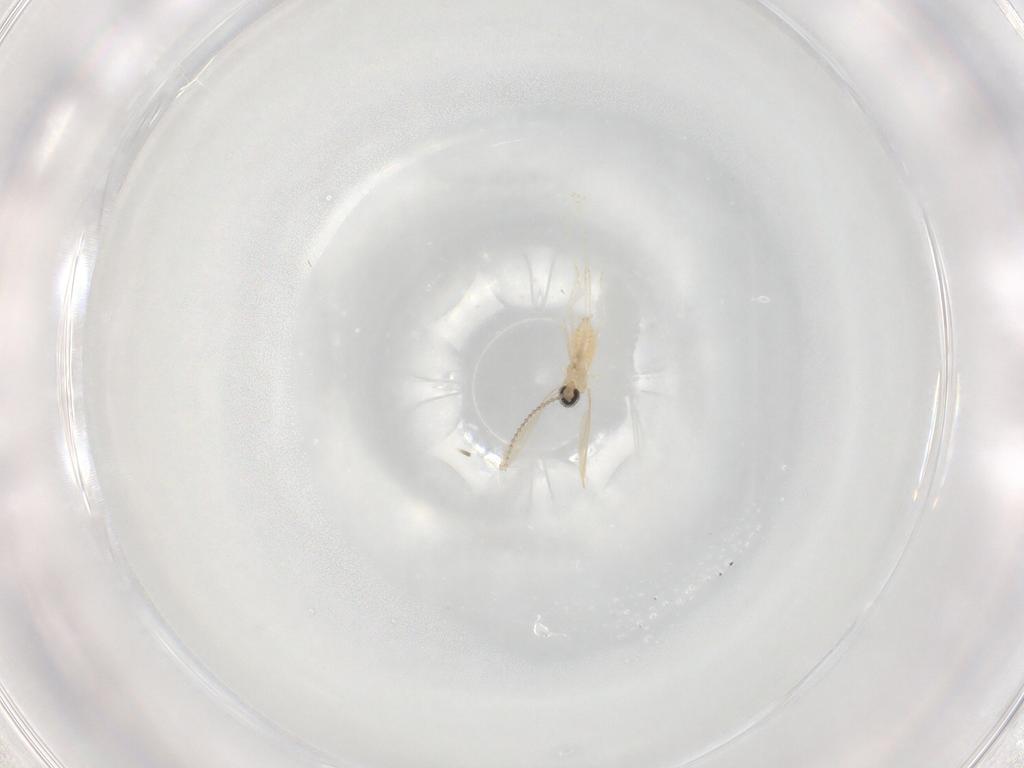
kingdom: Animalia
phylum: Arthropoda
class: Insecta
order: Diptera
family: Cecidomyiidae
